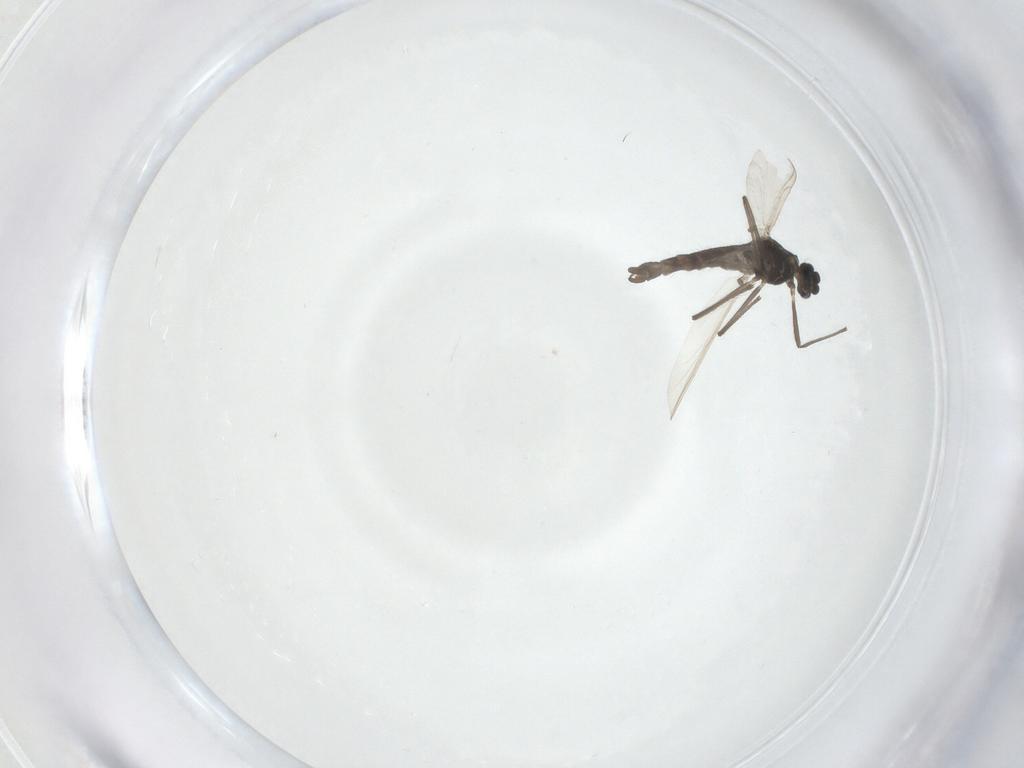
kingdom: Animalia
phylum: Arthropoda
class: Insecta
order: Diptera
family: Chironomidae
